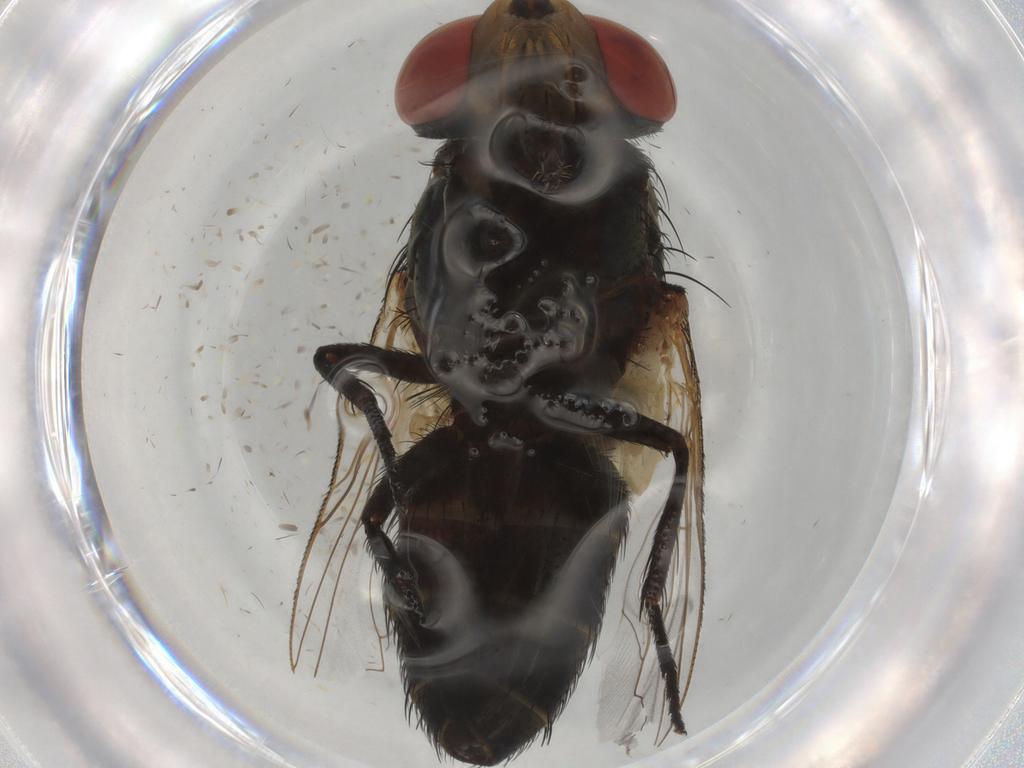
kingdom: Animalia
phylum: Arthropoda
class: Insecta
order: Diptera
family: Sarcophagidae
